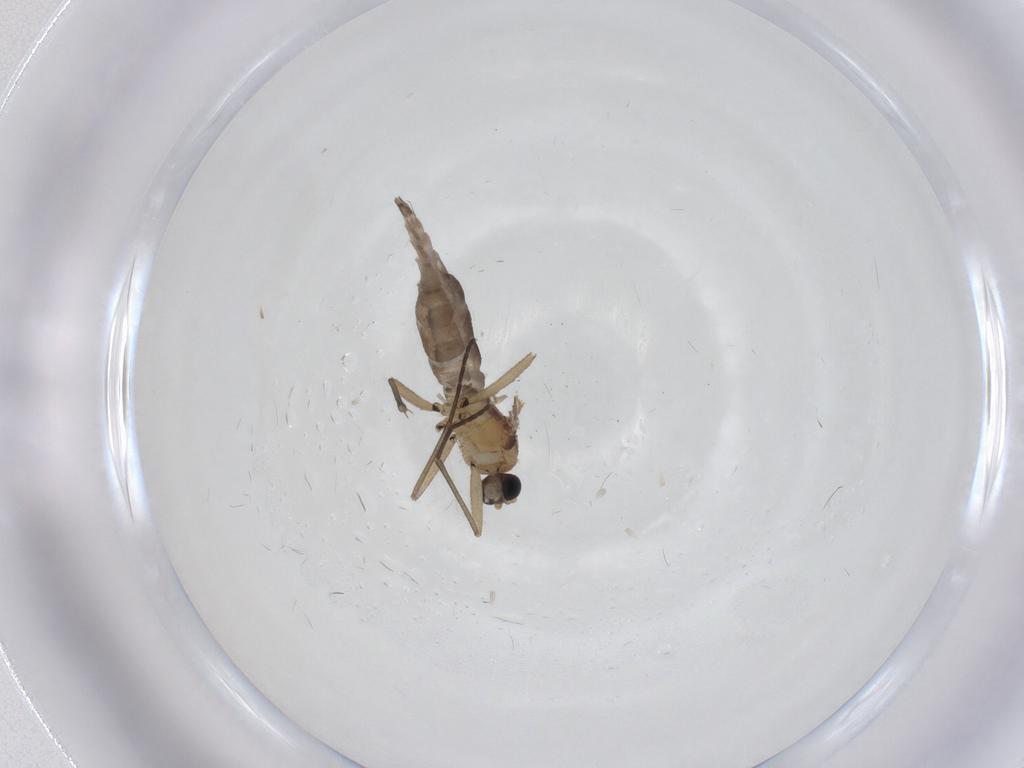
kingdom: Animalia
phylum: Arthropoda
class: Insecta
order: Diptera
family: Sciaridae
